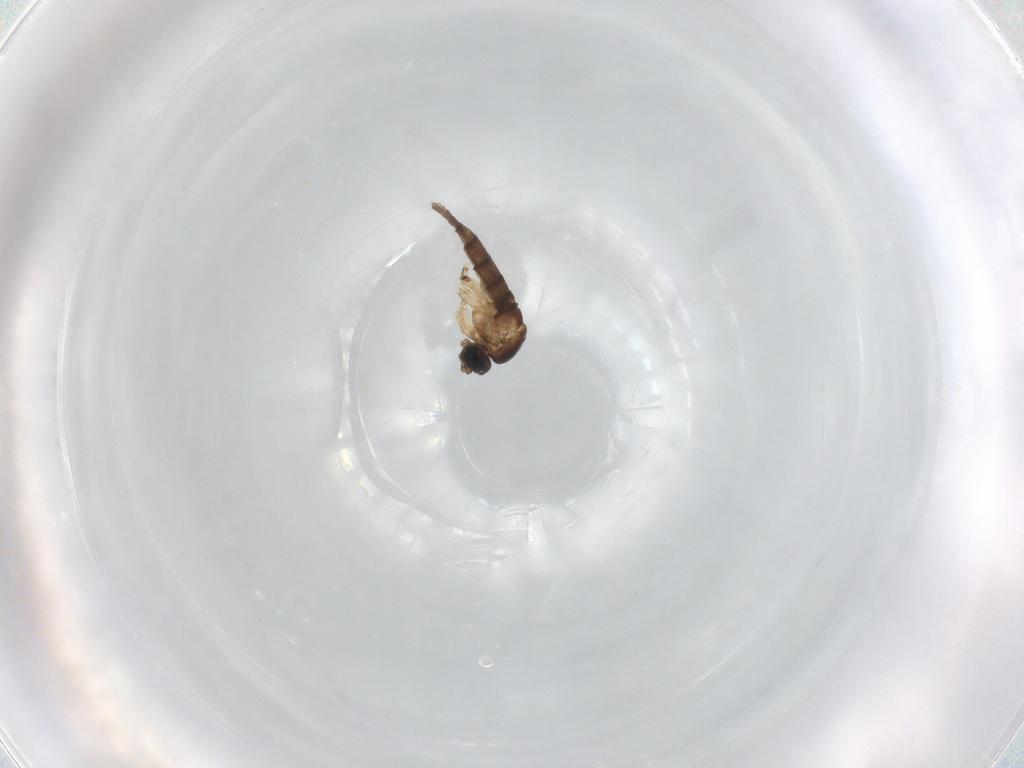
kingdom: Animalia
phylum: Arthropoda
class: Insecta
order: Diptera
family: Sciaridae
